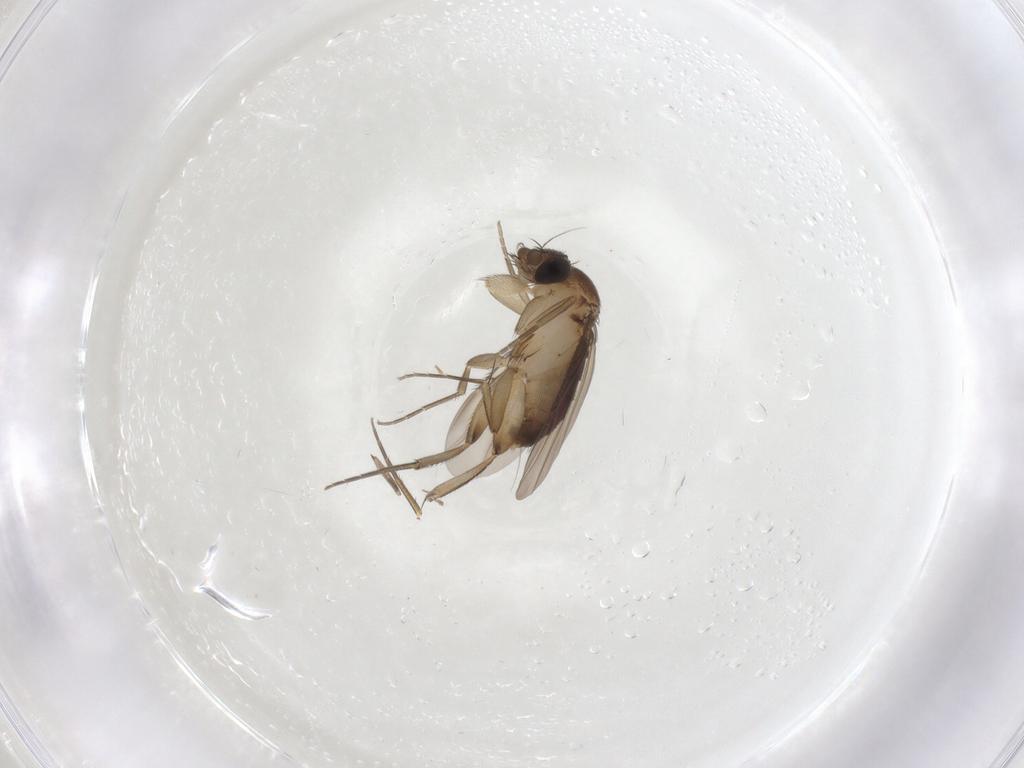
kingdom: Animalia
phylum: Arthropoda
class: Insecta
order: Diptera
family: Phoridae
